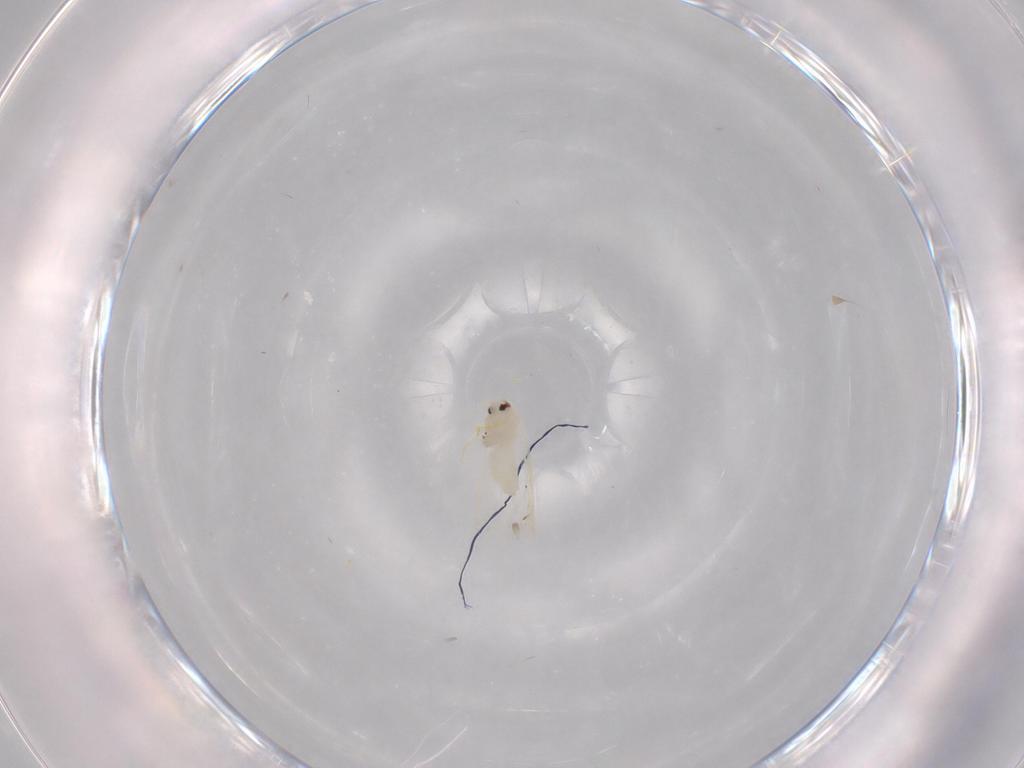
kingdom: Animalia
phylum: Arthropoda
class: Insecta
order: Hemiptera
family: Aleyrodidae
